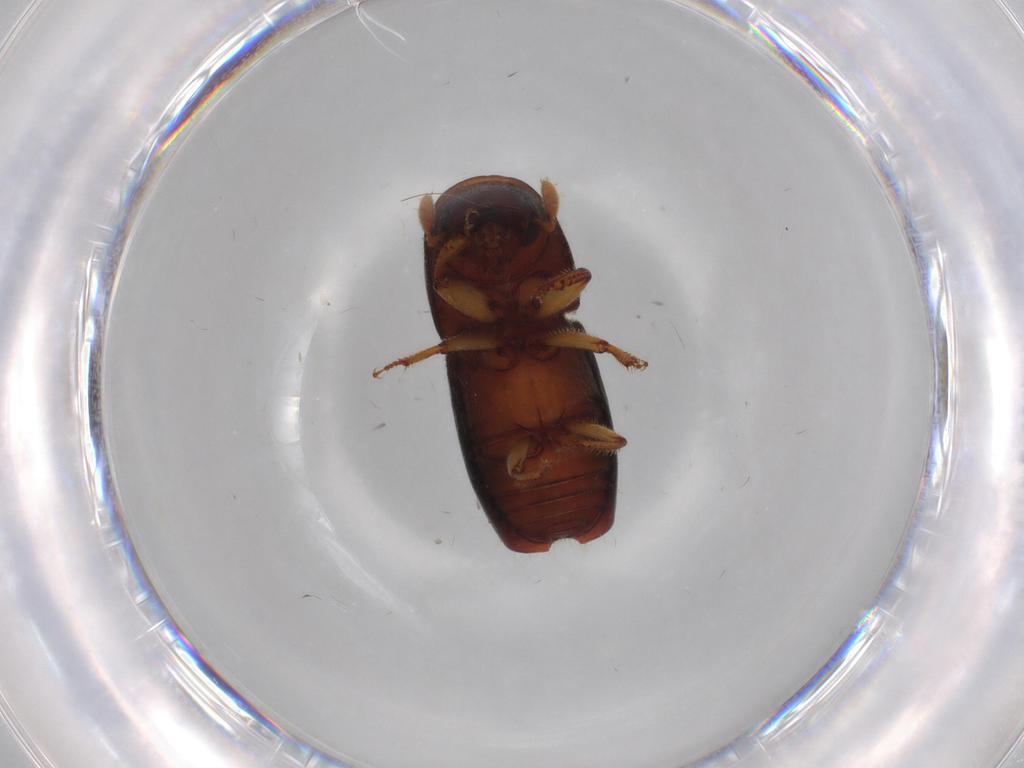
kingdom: Animalia
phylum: Arthropoda
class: Insecta
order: Coleoptera
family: Curculionidae
